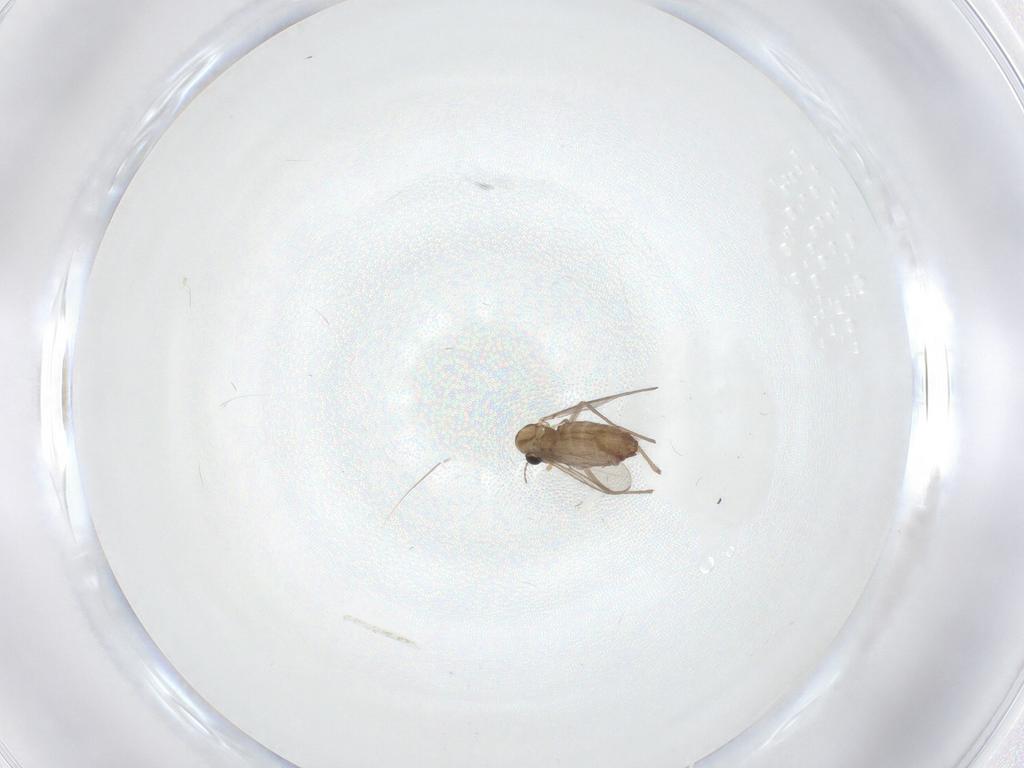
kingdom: Animalia
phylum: Arthropoda
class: Insecta
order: Diptera
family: Chironomidae
